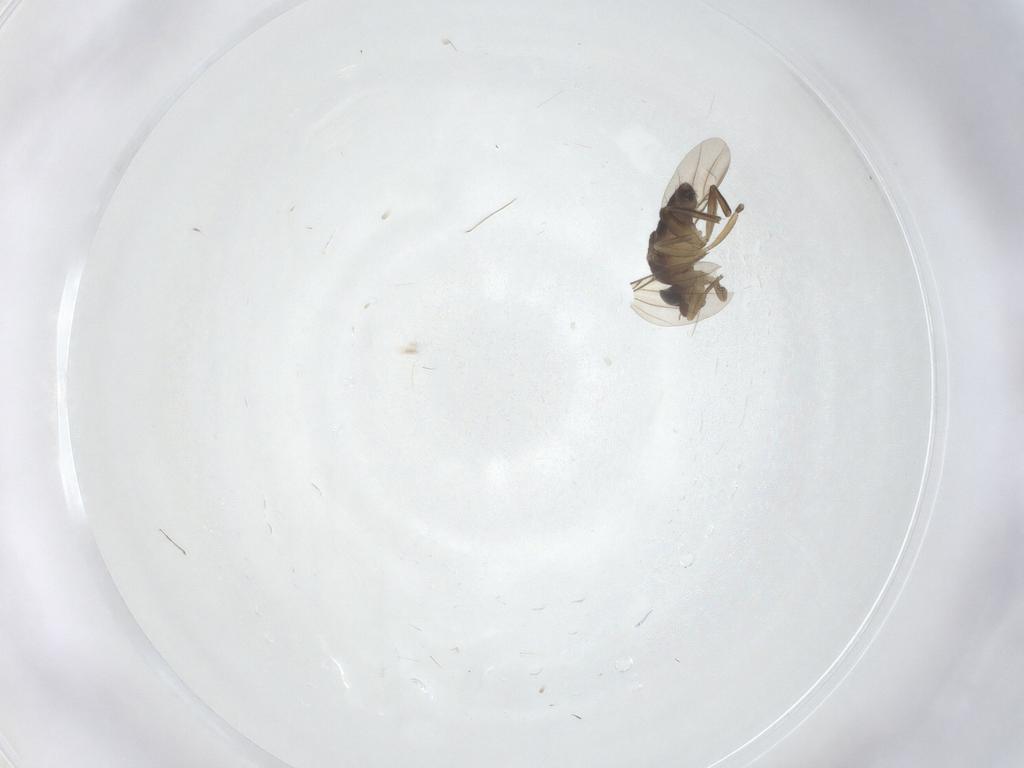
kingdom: Animalia
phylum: Arthropoda
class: Insecta
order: Diptera
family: Phoridae
